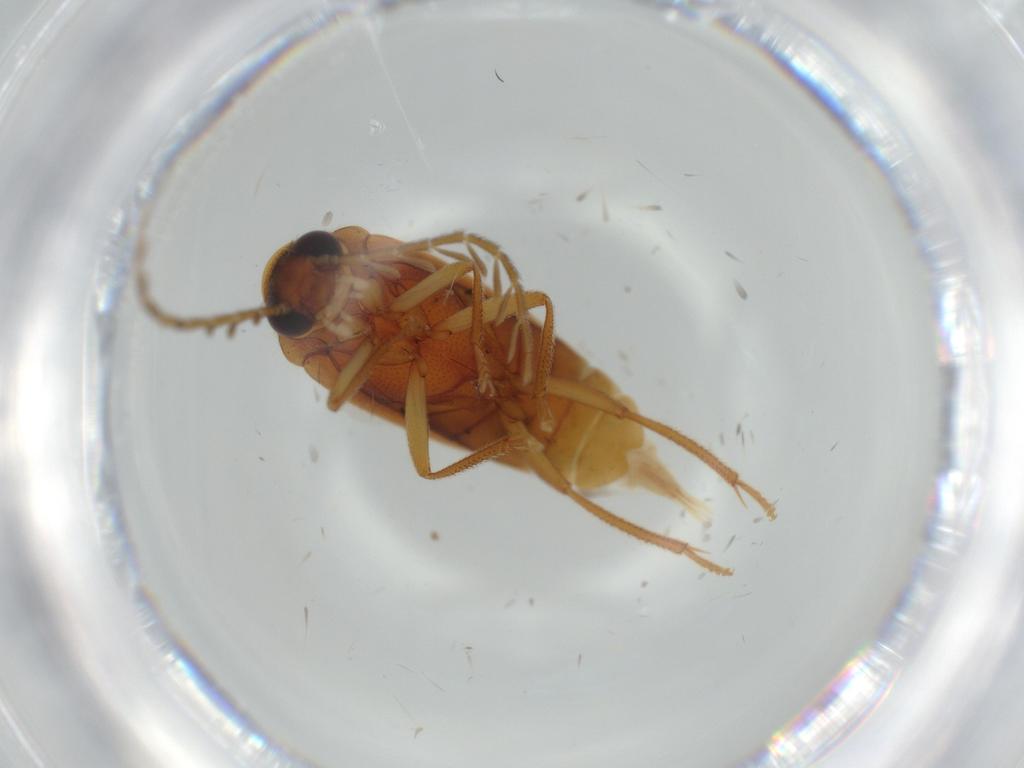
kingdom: Animalia
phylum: Arthropoda
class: Insecta
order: Coleoptera
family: Ptilodactylidae
